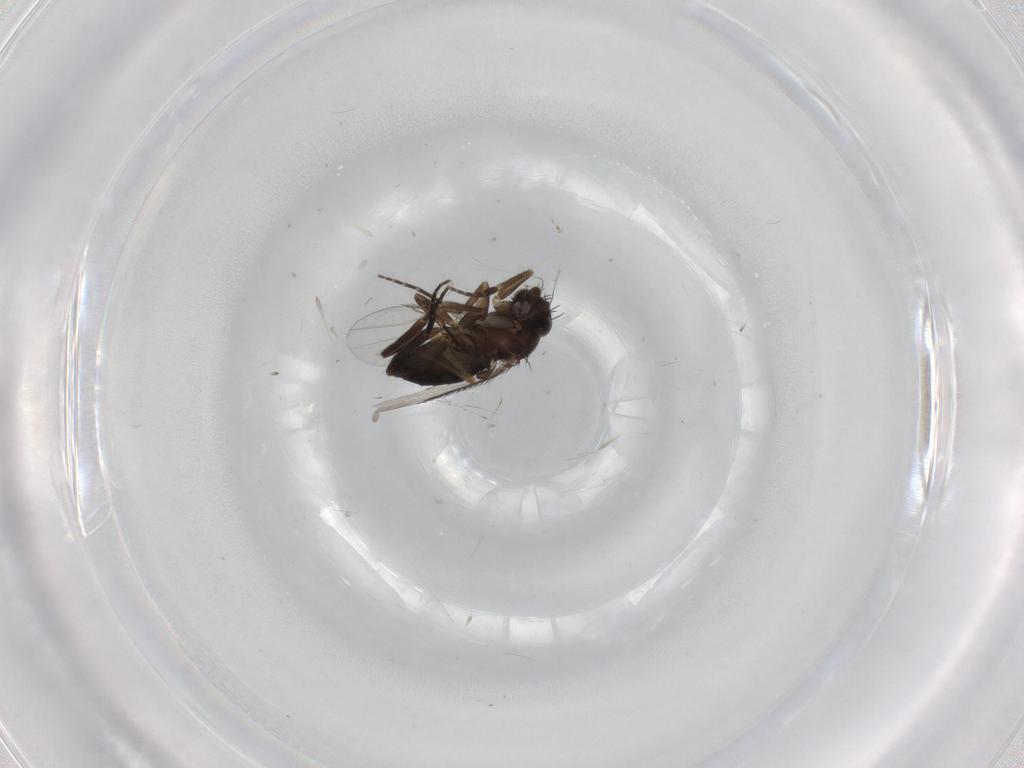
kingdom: Animalia
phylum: Arthropoda
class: Insecta
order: Diptera
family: Phoridae
